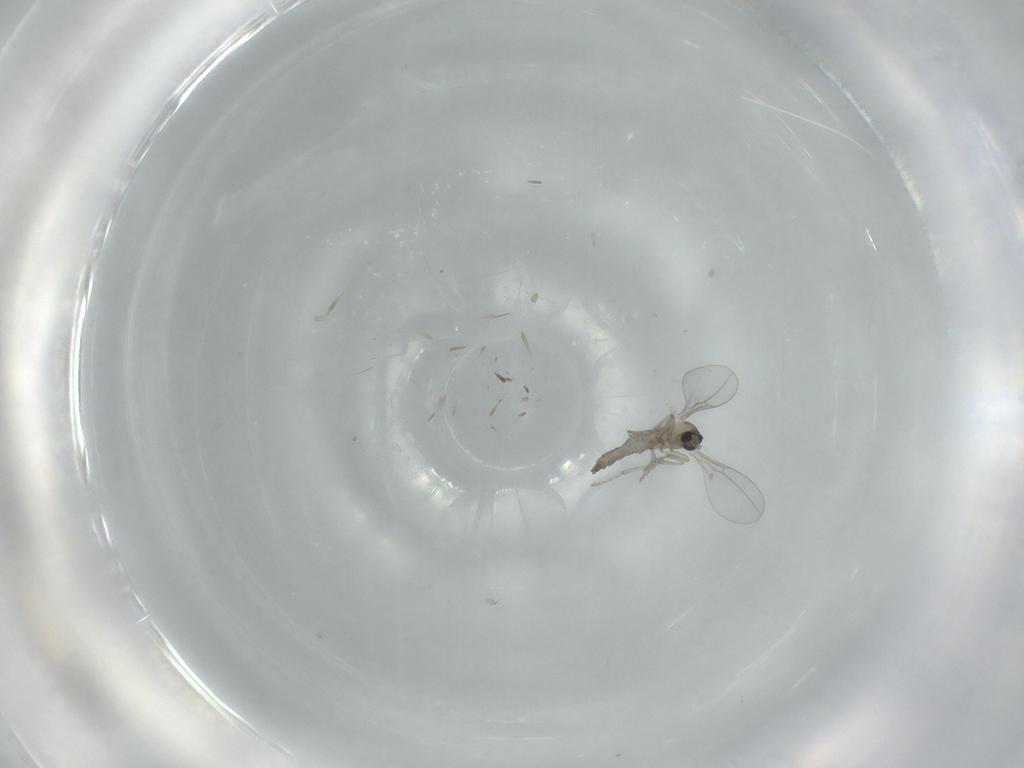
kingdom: Animalia
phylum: Arthropoda
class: Insecta
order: Diptera
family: Cecidomyiidae
